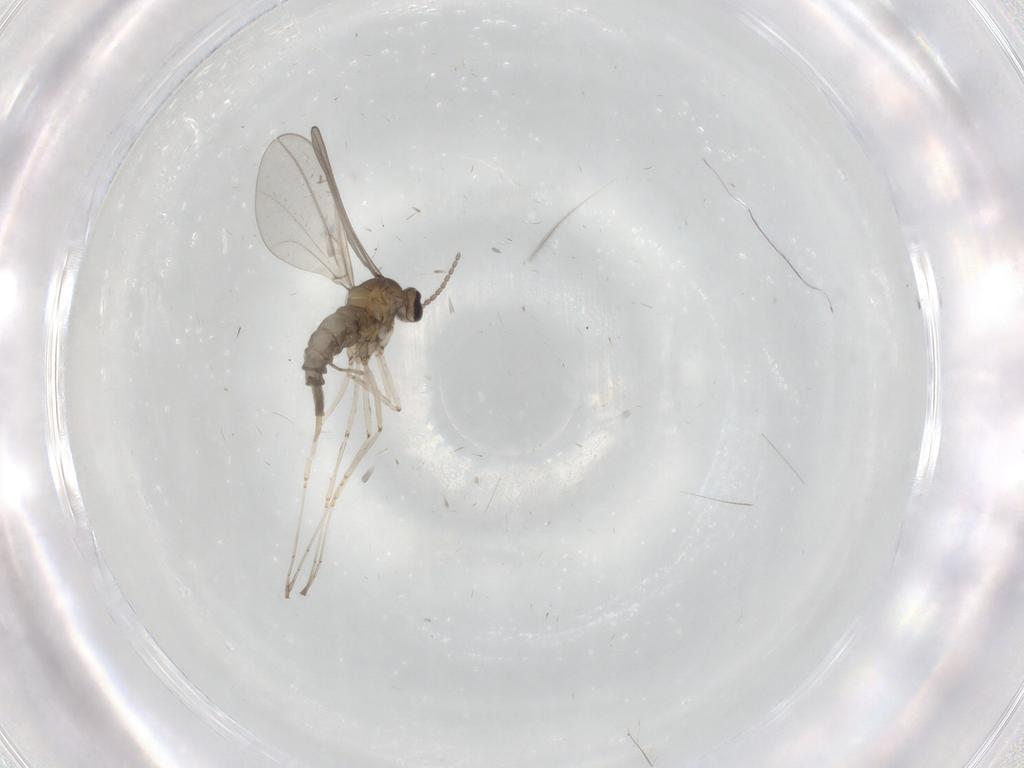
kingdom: Animalia
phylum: Arthropoda
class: Insecta
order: Diptera
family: Cecidomyiidae
